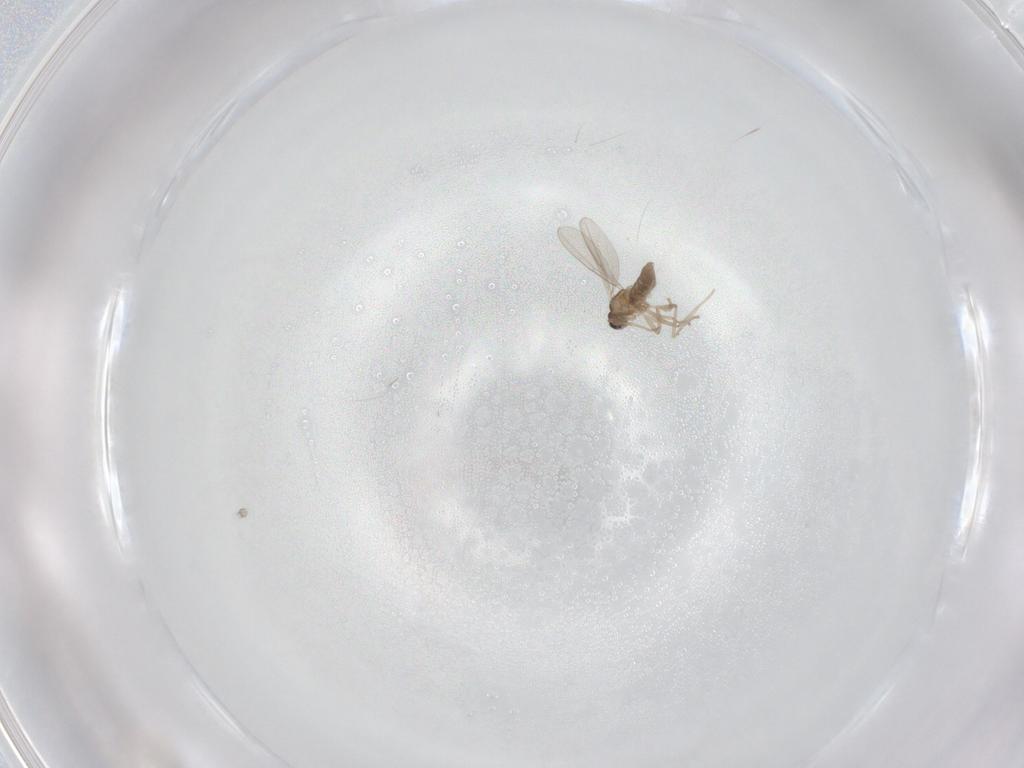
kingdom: Animalia
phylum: Arthropoda
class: Insecta
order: Diptera
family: Cecidomyiidae
